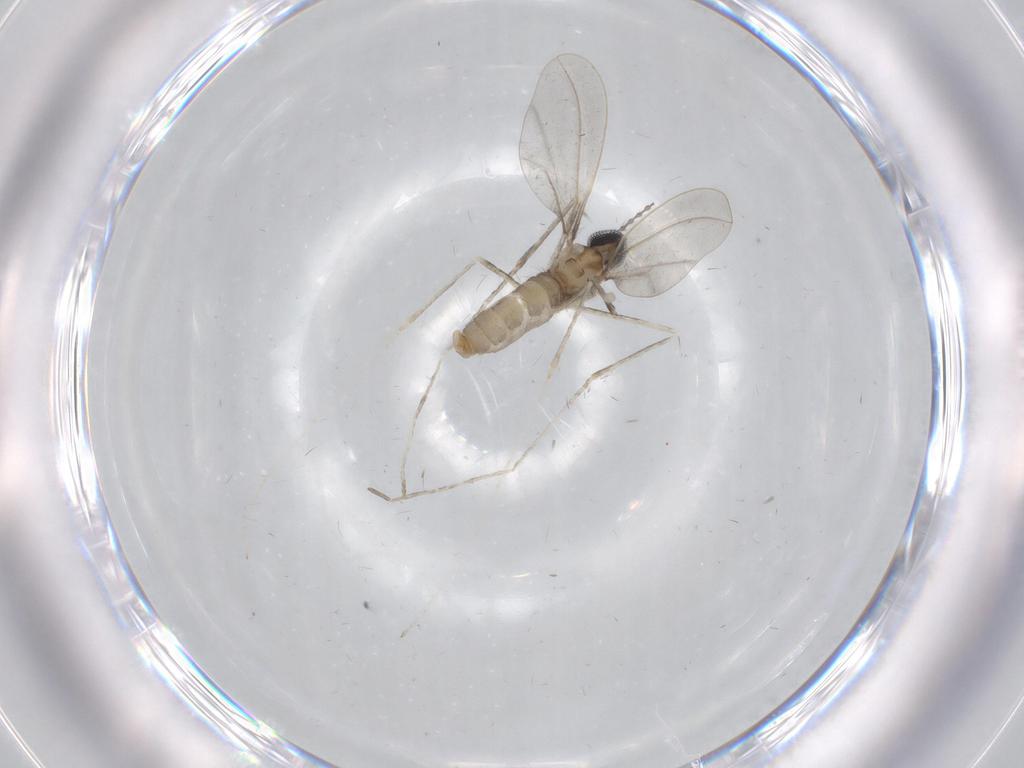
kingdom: Animalia
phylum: Arthropoda
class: Insecta
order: Diptera
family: Cecidomyiidae
